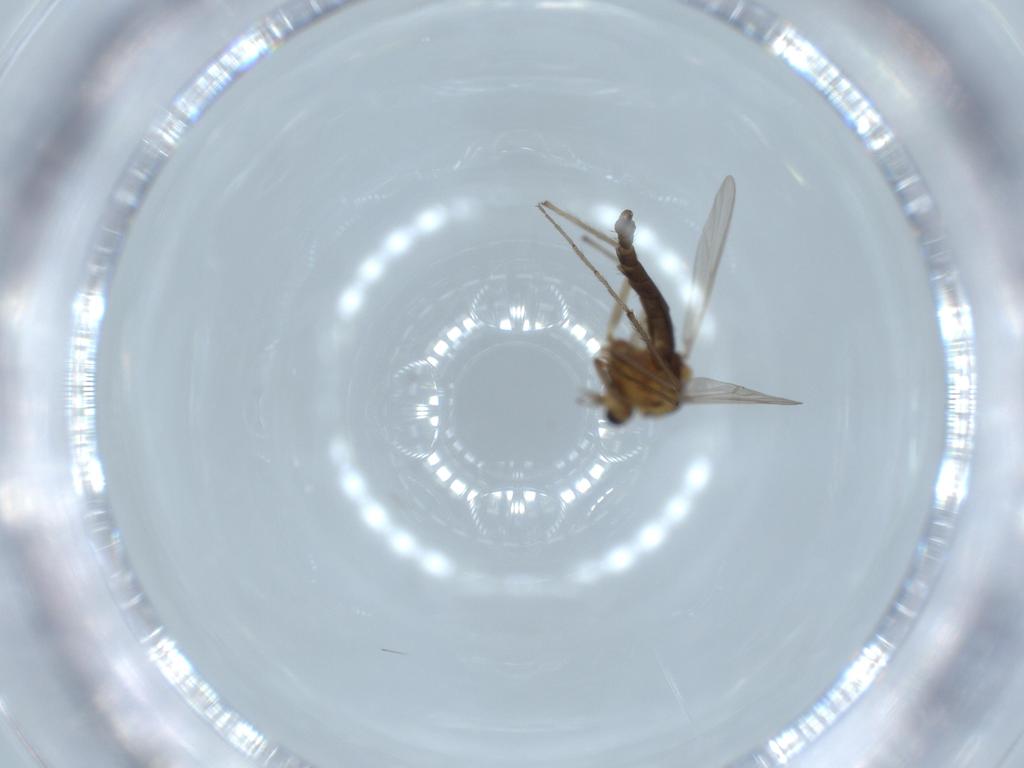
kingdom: Animalia
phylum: Arthropoda
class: Insecta
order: Diptera
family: Chironomidae
